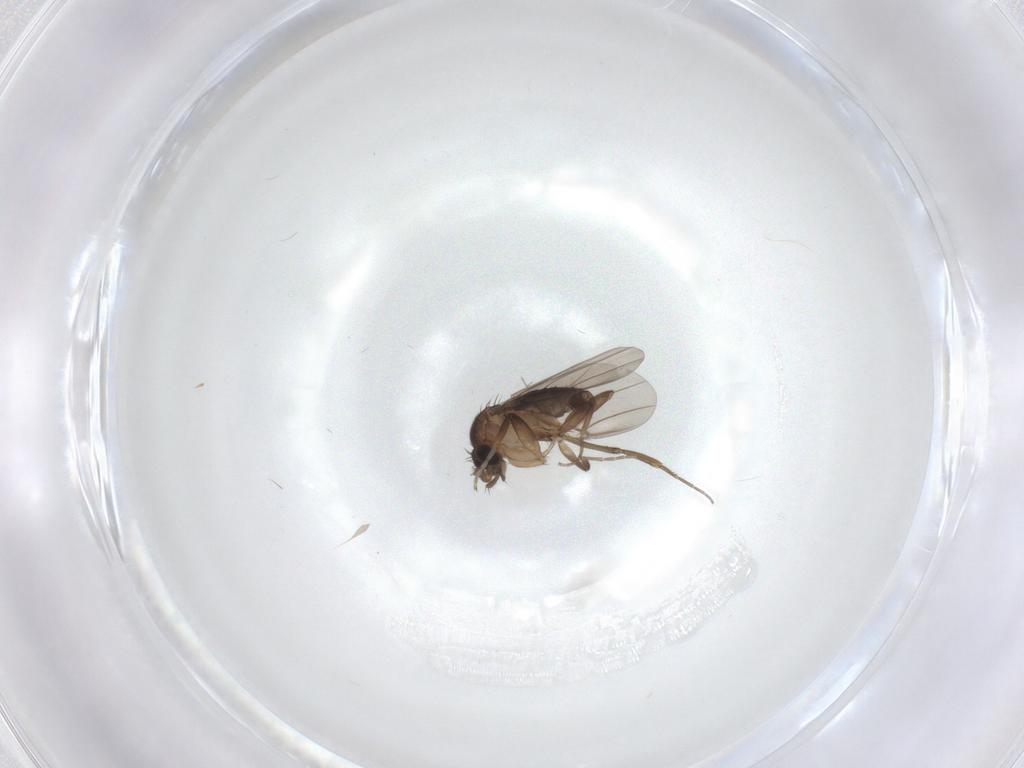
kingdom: Animalia
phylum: Arthropoda
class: Insecta
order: Diptera
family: Phoridae
